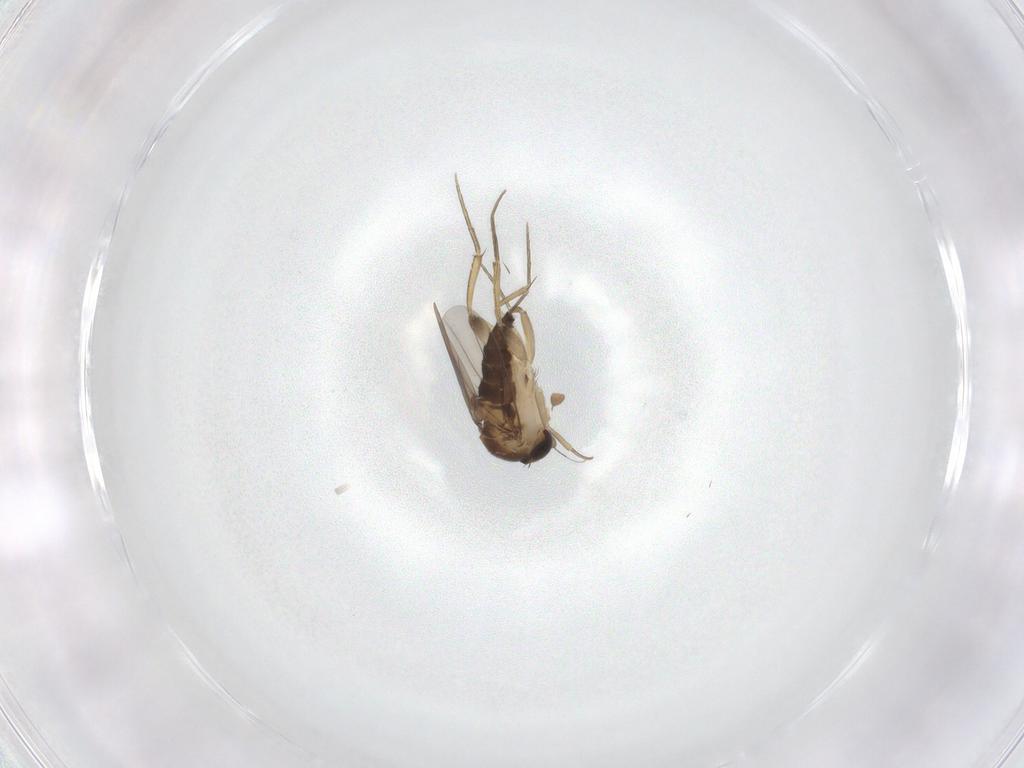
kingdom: Animalia
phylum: Arthropoda
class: Insecta
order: Diptera
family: Phoridae
